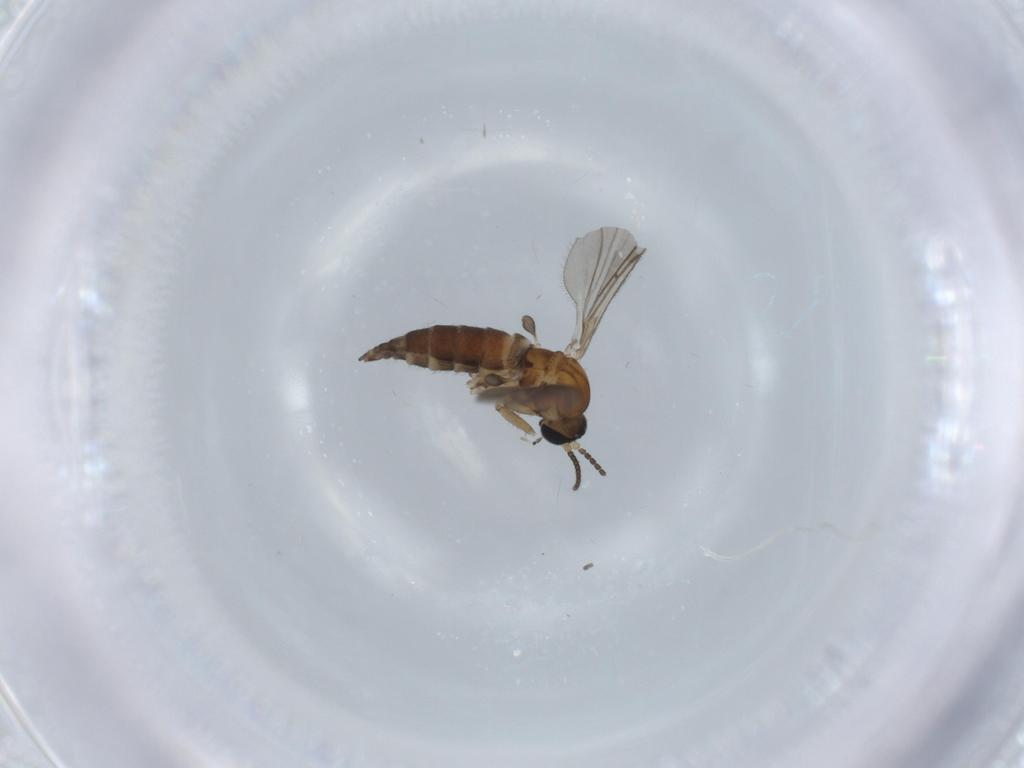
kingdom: Animalia
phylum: Arthropoda
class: Insecta
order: Diptera
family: Sciaridae
